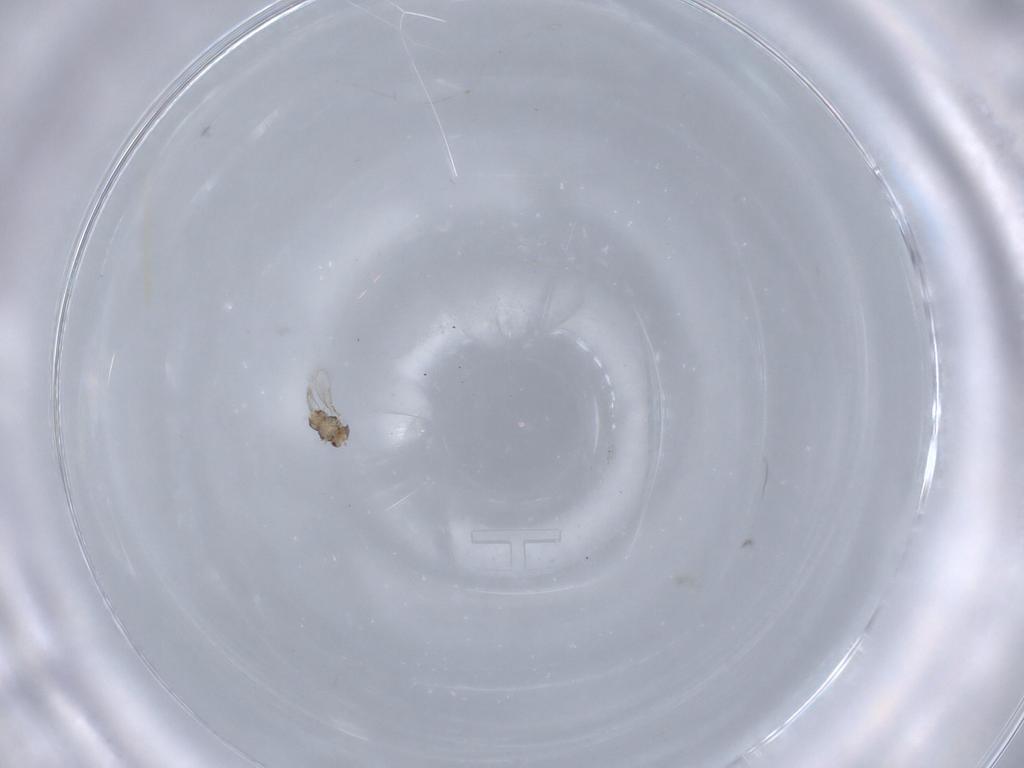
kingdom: Animalia
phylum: Arthropoda
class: Insecta
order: Hymenoptera
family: Aphelinidae
